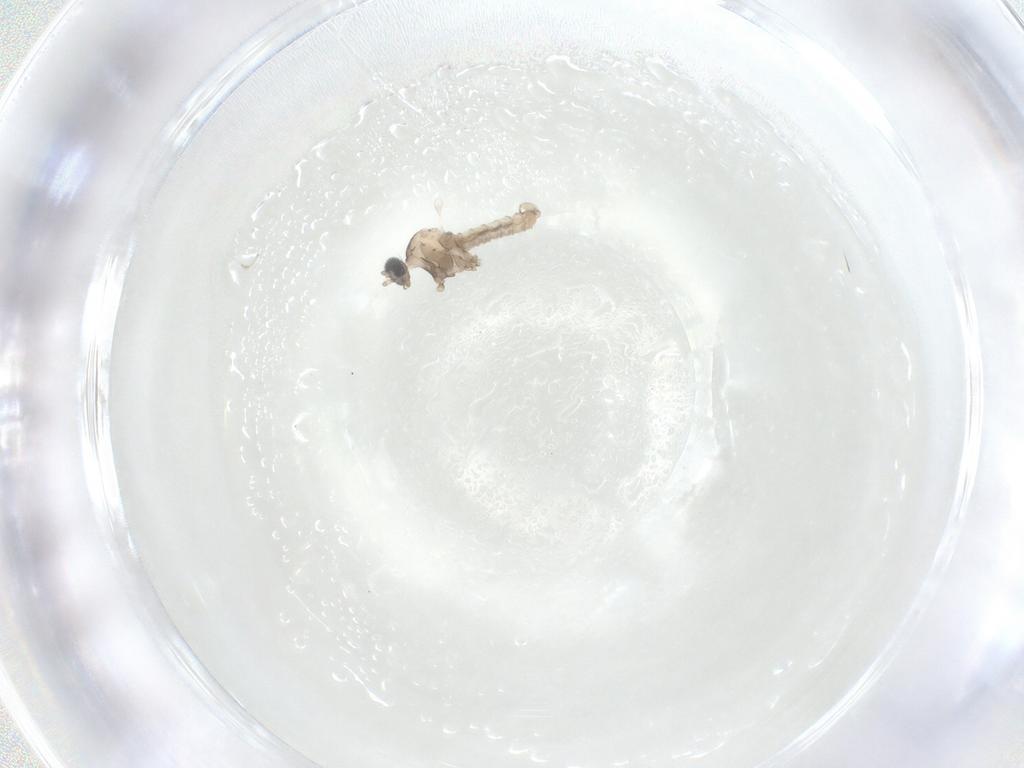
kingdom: Animalia
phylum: Arthropoda
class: Insecta
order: Diptera
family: Cecidomyiidae
